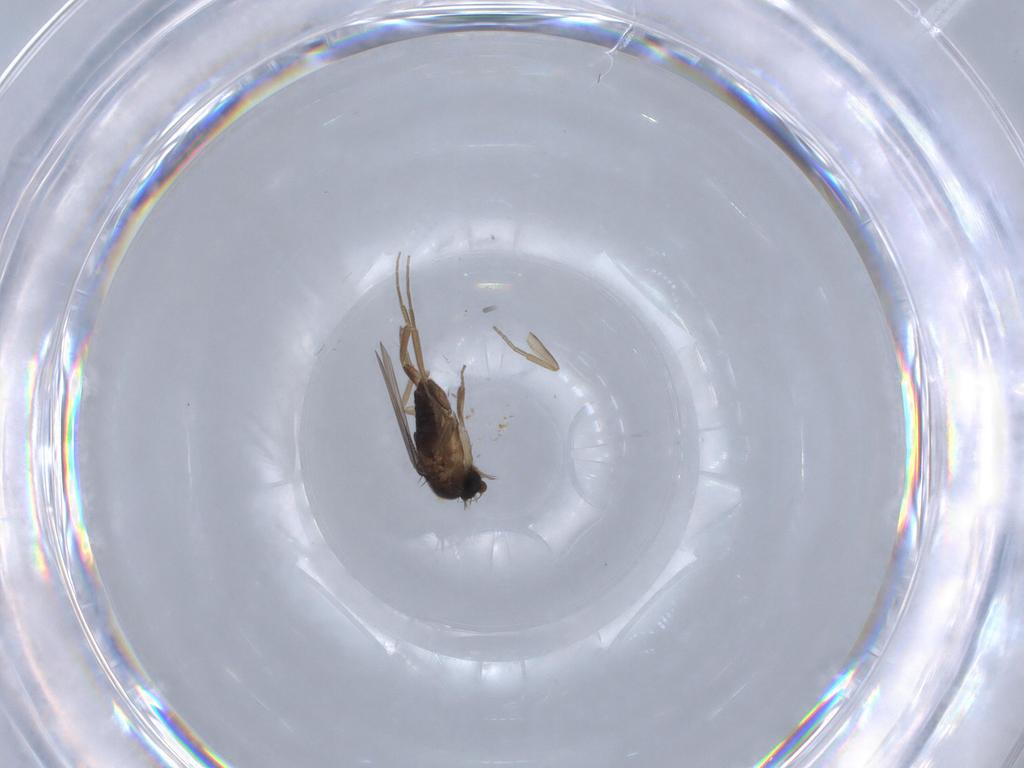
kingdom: Animalia
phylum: Arthropoda
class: Insecta
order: Diptera
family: Phoridae
